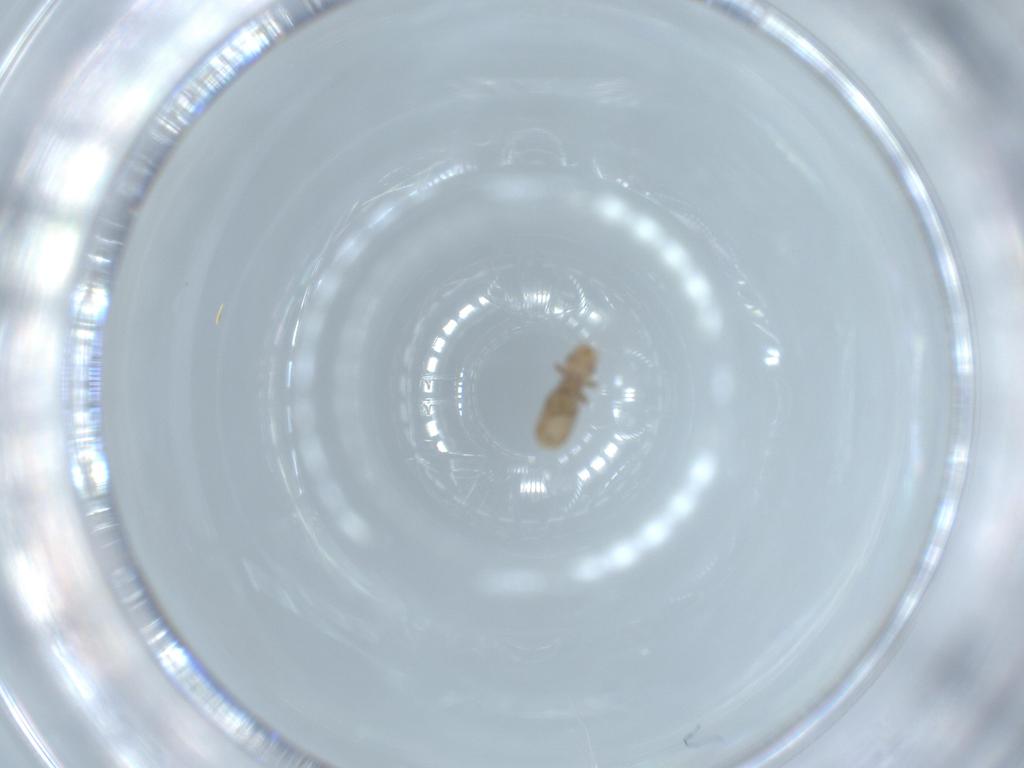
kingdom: Animalia
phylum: Arthropoda
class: Insecta
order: Psocodea
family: Liposcelididae
